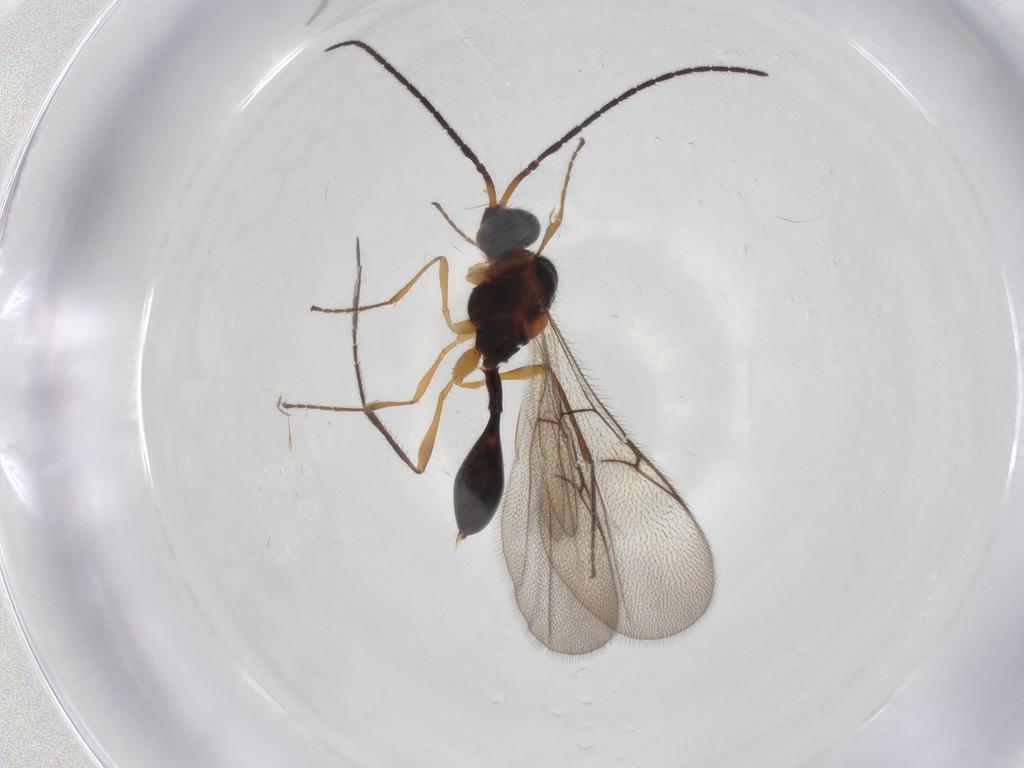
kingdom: Animalia
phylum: Arthropoda
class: Insecta
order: Hymenoptera
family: Diapriidae
